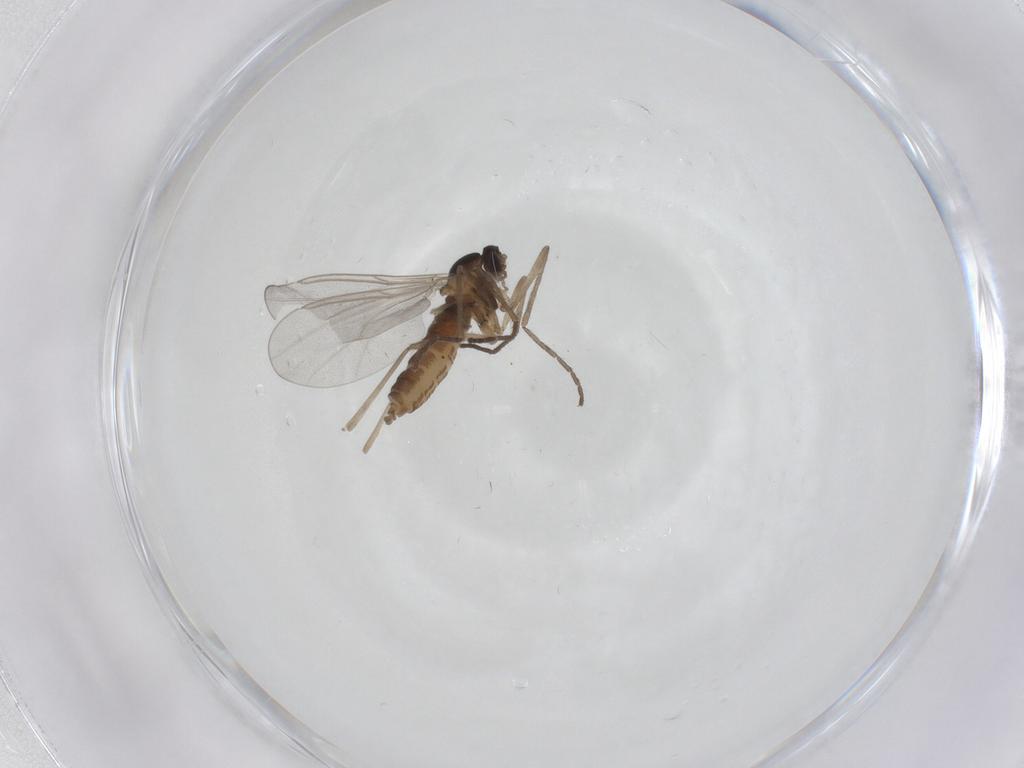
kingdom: Animalia
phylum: Arthropoda
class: Insecta
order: Diptera
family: Cecidomyiidae
